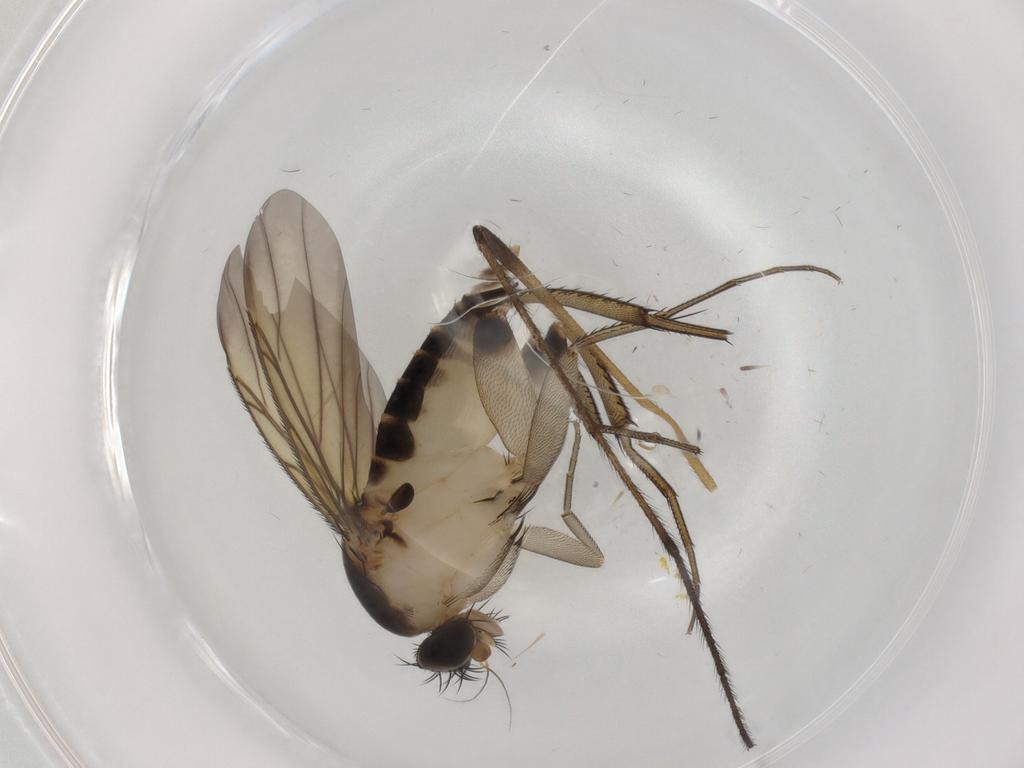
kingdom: Animalia
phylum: Arthropoda
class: Insecta
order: Diptera
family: Phoridae
